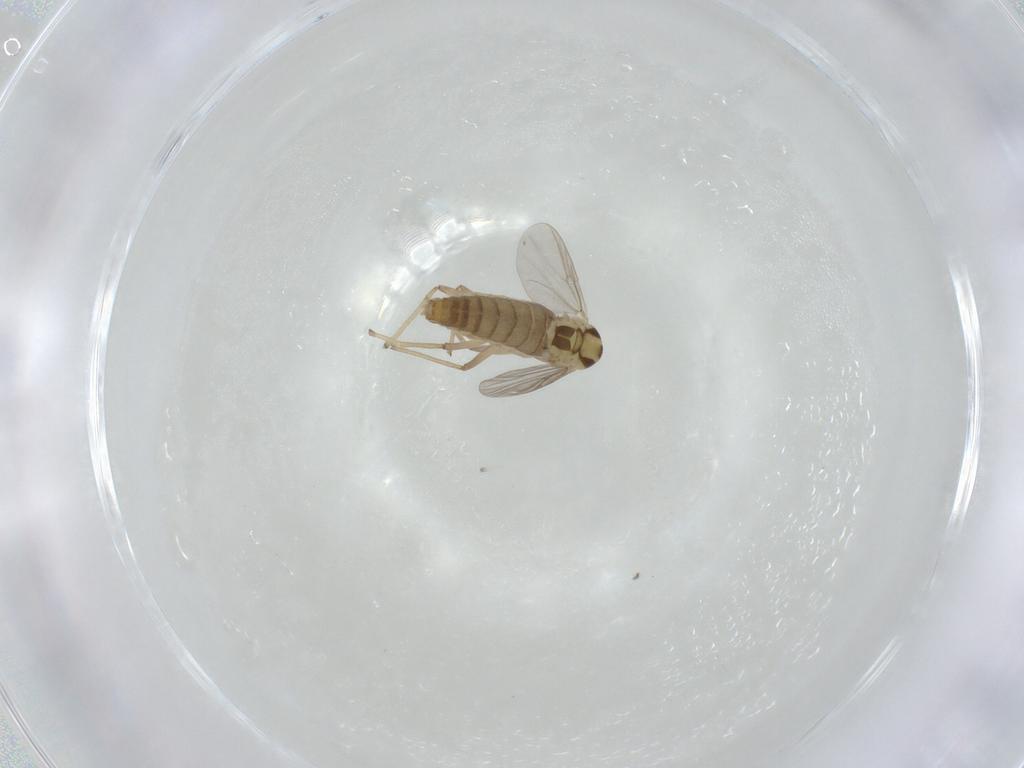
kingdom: Animalia
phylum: Arthropoda
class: Insecta
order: Diptera
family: Chironomidae
